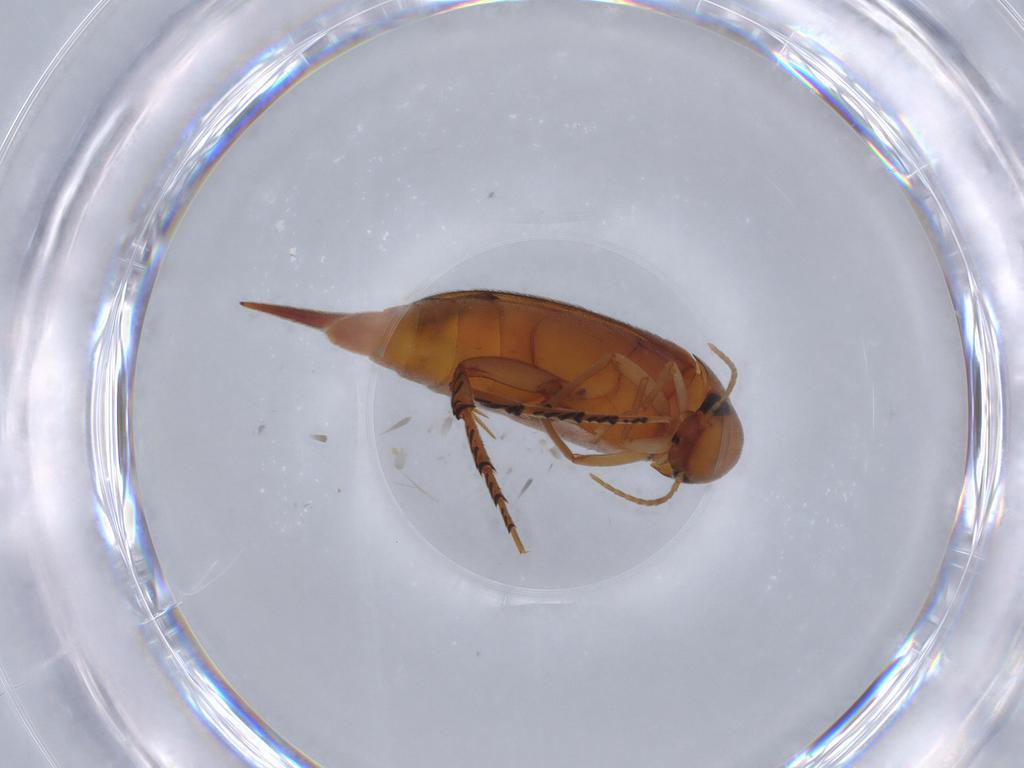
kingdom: Animalia
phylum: Arthropoda
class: Insecta
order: Coleoptera
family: Mordellidae
